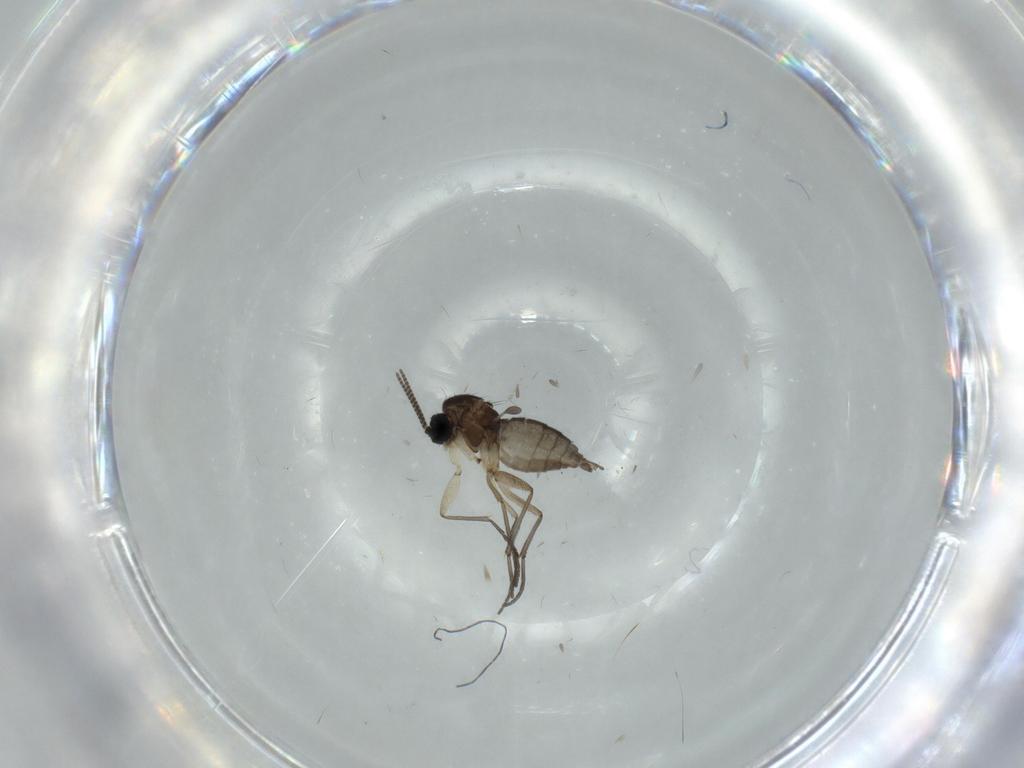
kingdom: Animalia
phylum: Arthropoda
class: Insecta
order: Diptera
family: Sciaridae
